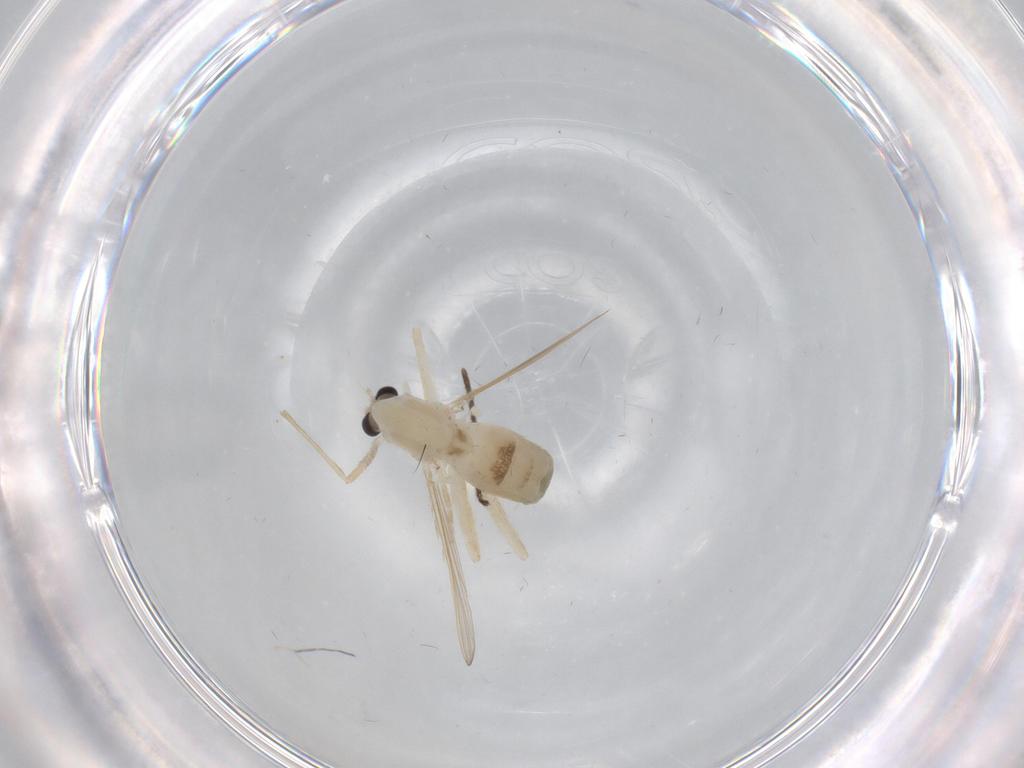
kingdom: Animalia
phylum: Arthropoda
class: Insecta
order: Diptera
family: Chironomidae
